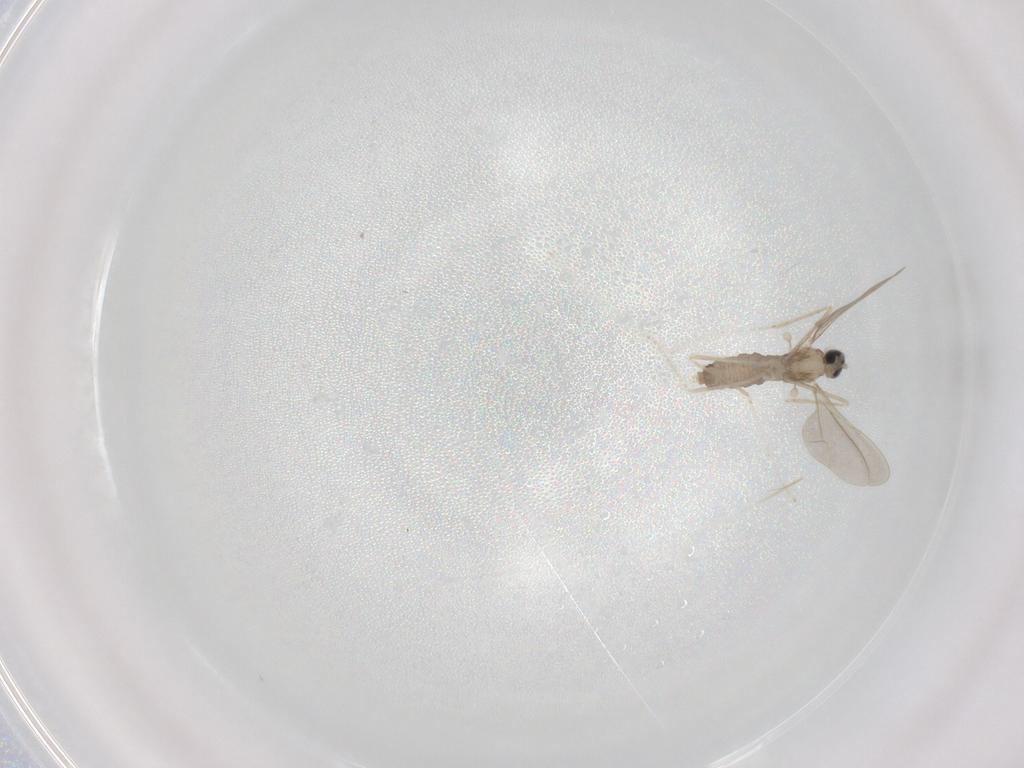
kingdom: Animalia
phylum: Arthropoda
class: Insecta
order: Diptera
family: Cecidomyiidae
